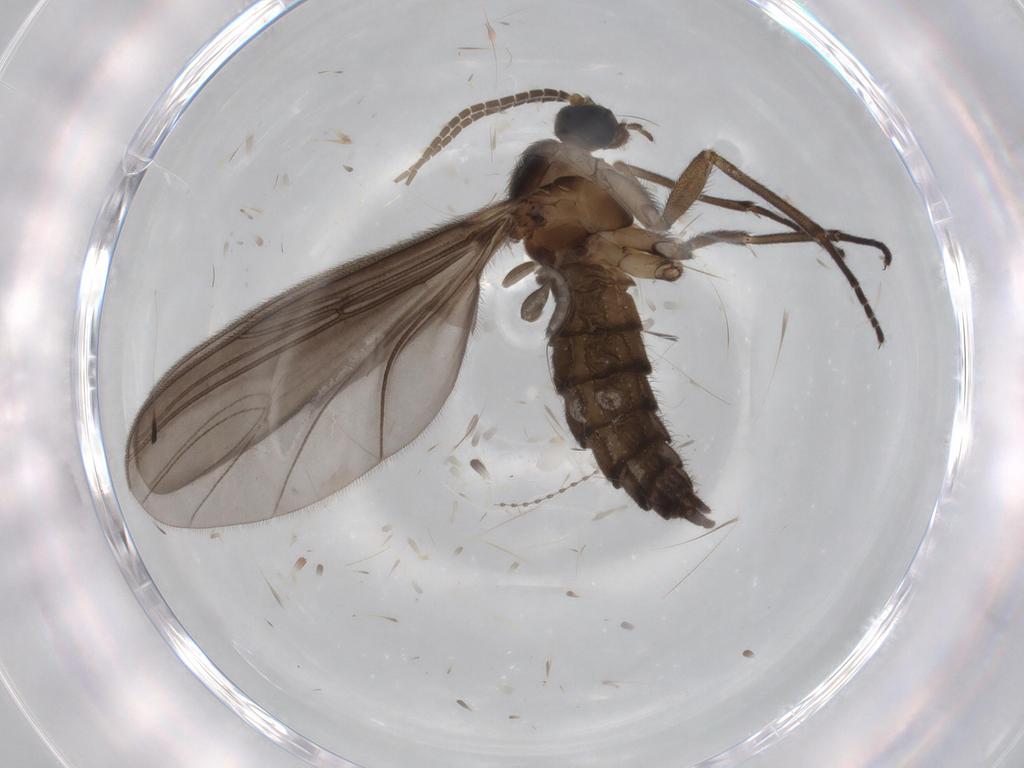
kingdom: Animalia
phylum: Arthropoda
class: Insecta
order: Diptera
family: Sciaridae
